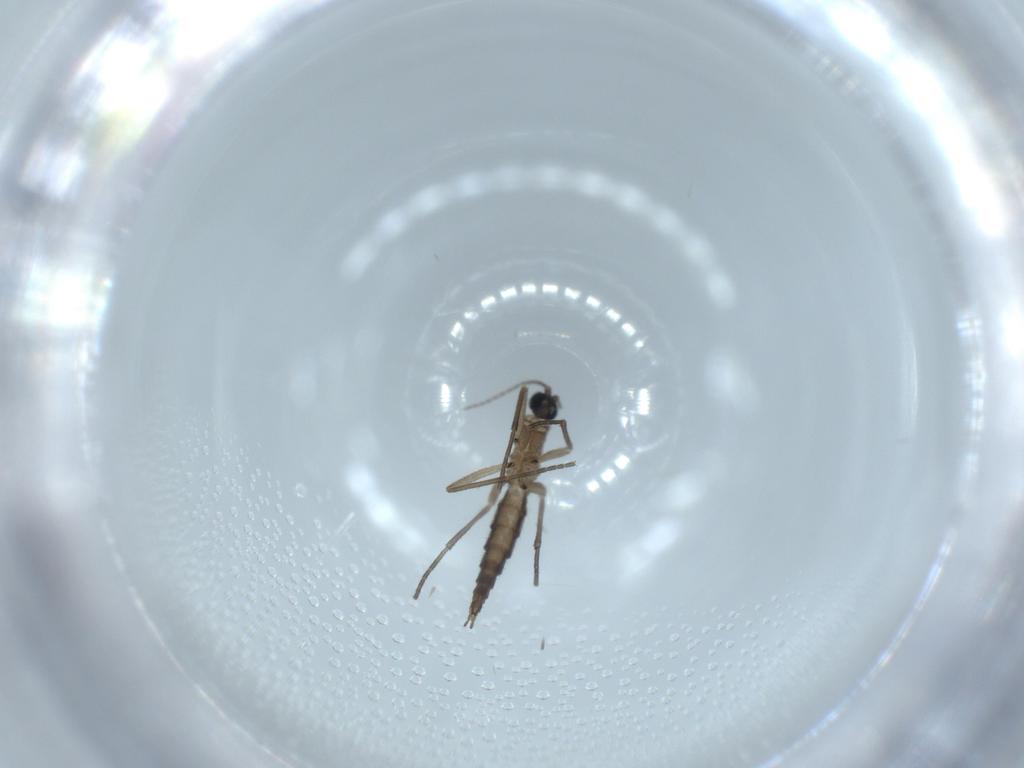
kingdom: Animalia
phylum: Arthropoda
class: Insecta
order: Diptera
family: Sciaridae
